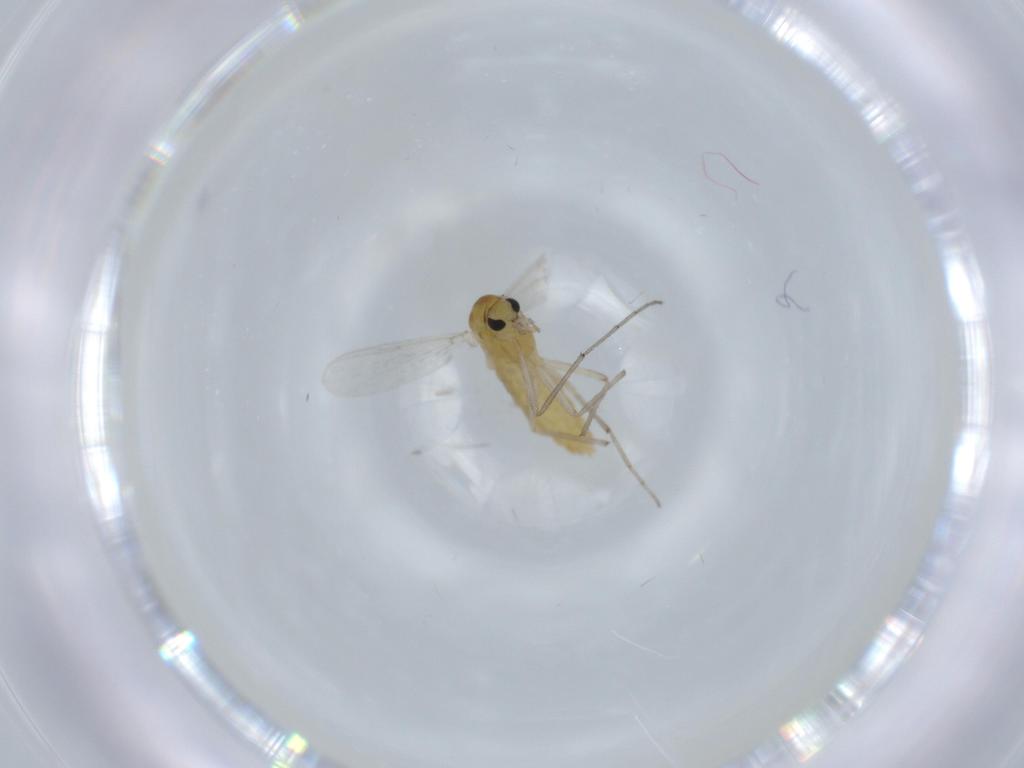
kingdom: Animalia
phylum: Arthropoda
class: Insecta
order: Diptera
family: Chironomidae
